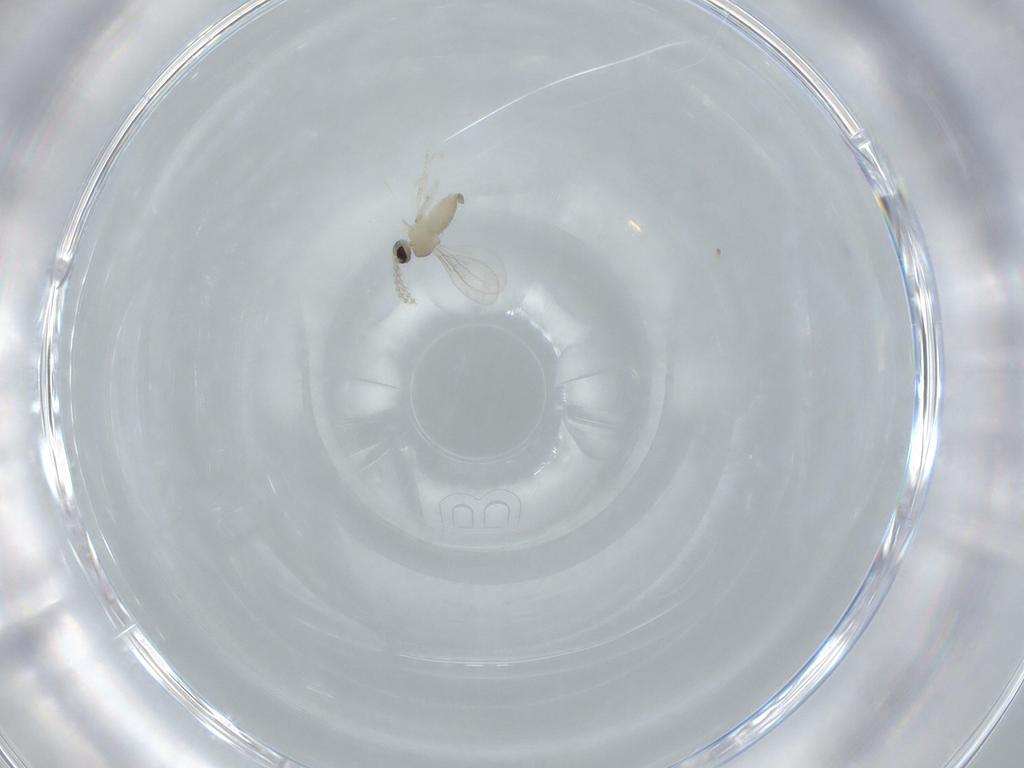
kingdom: Animalia
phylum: Arthropoda
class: Insecta
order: Diptera
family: Cecidomyiidae
